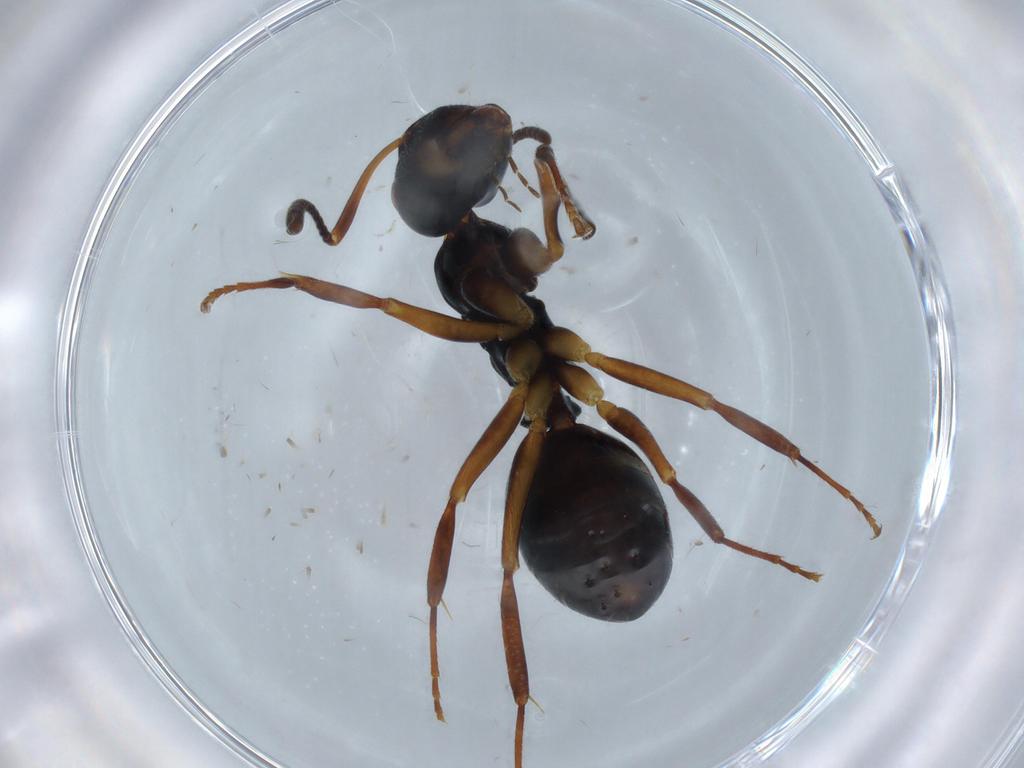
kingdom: Animalia
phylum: Arthropoda
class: Insecta
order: Hymenoptera
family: Formicidae
